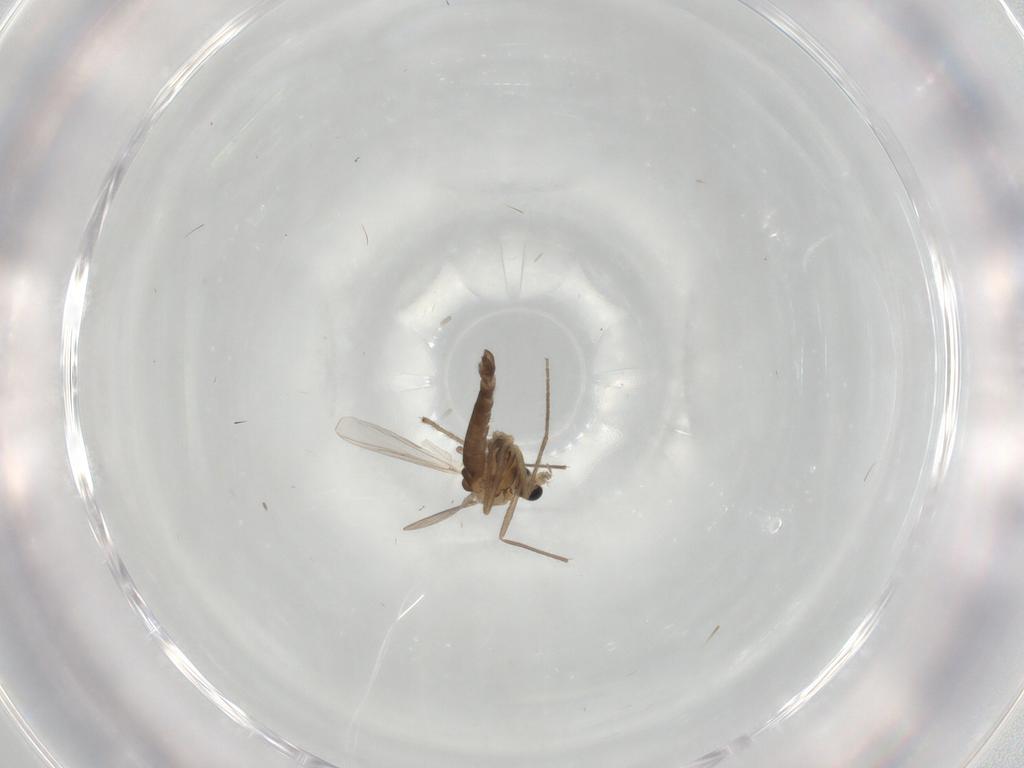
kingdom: Animalia
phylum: Arthropoda
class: Insecta
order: Diptera
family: Chironomidae
